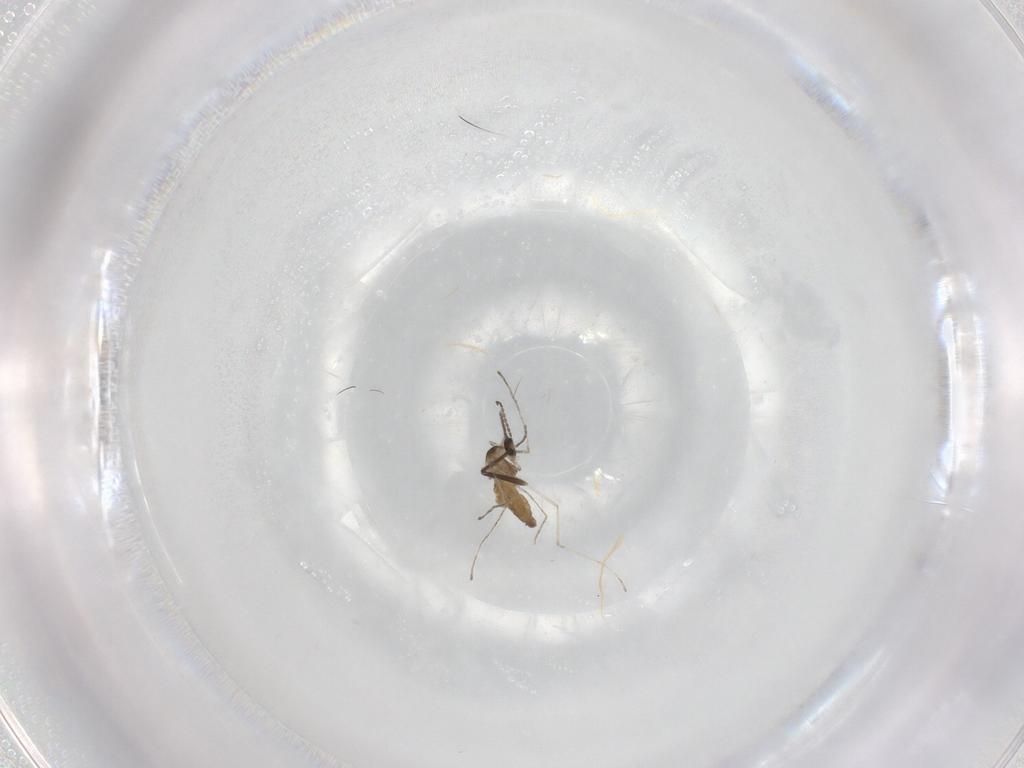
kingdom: Animalia
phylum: Arthropoda
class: Insecta
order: Diptera
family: Cecidomyiidae
